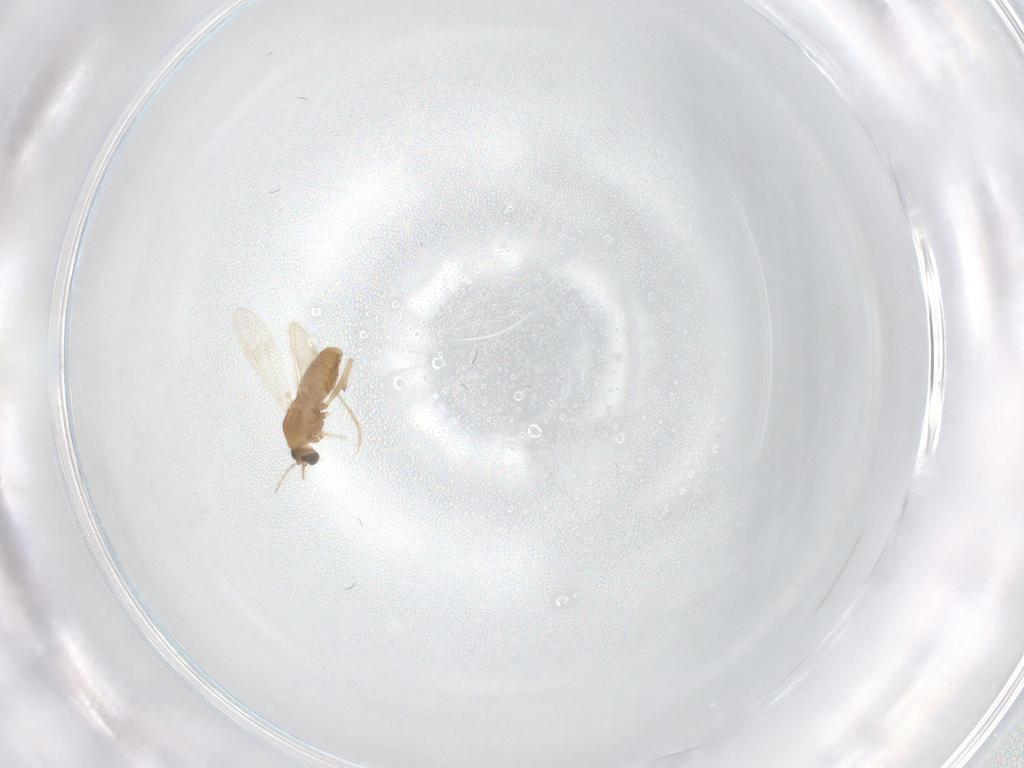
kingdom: Animalia
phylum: Arthropoda
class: Insecta
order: Diptera
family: Chironomidae
